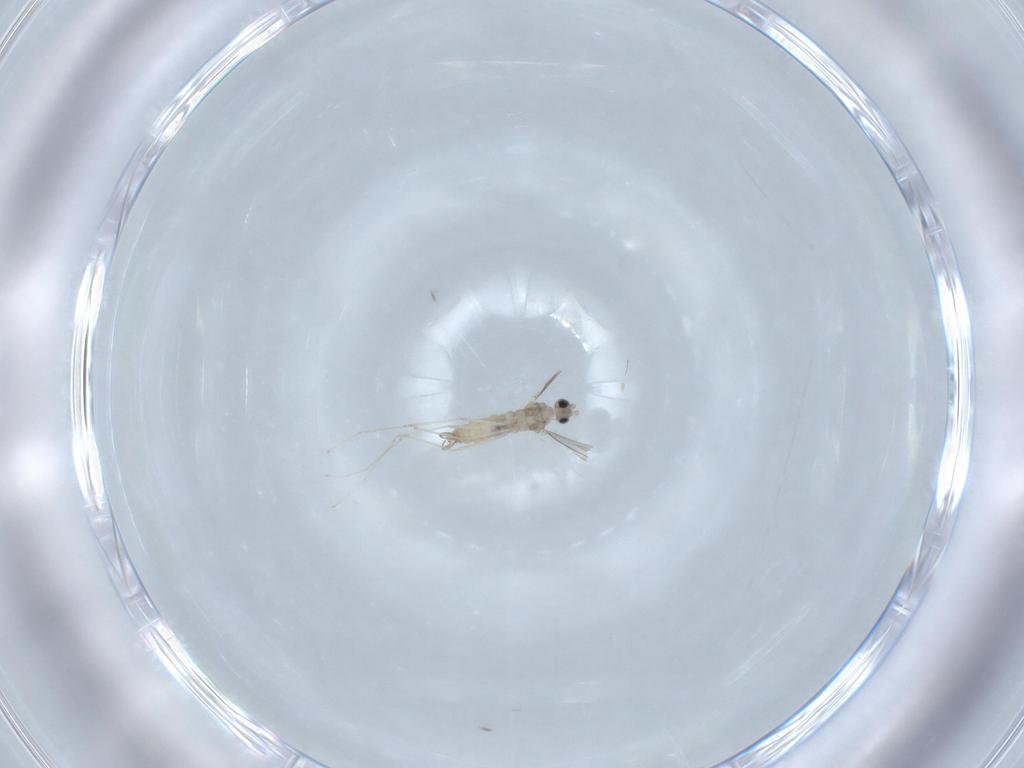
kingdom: Animalia
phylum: Arthropoda
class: Insecta
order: Diptera
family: Cecidomyiidae
